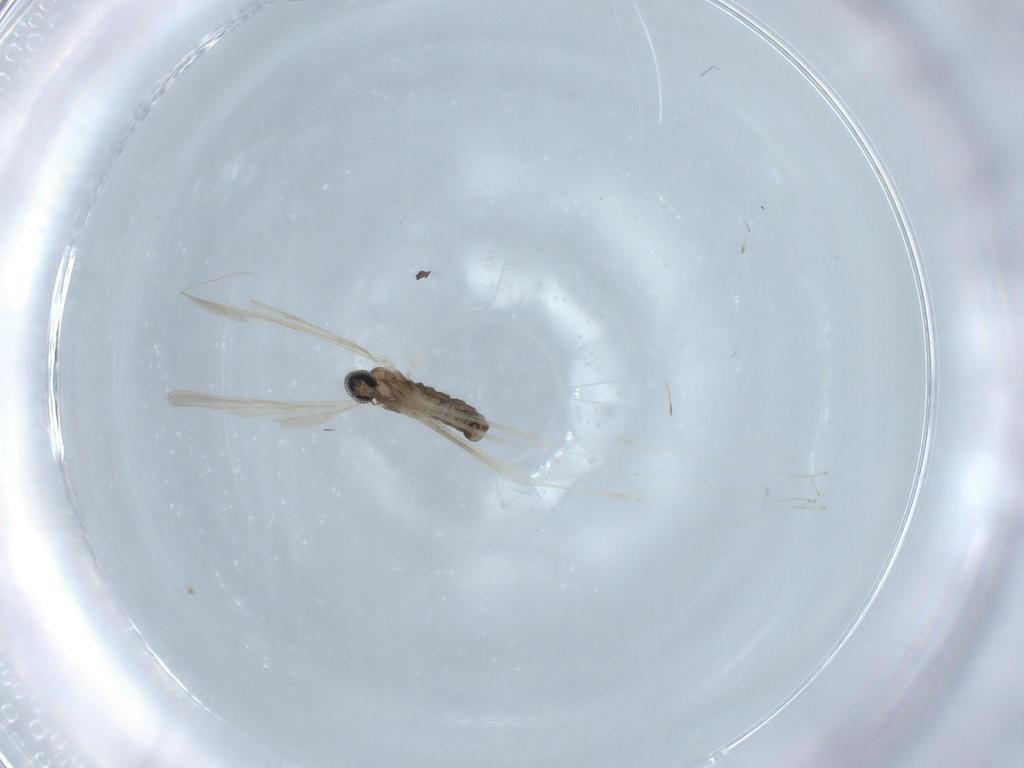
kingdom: Animalia
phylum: Arthropoda
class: Insecta
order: Diptera
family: Cecidomyiidae
